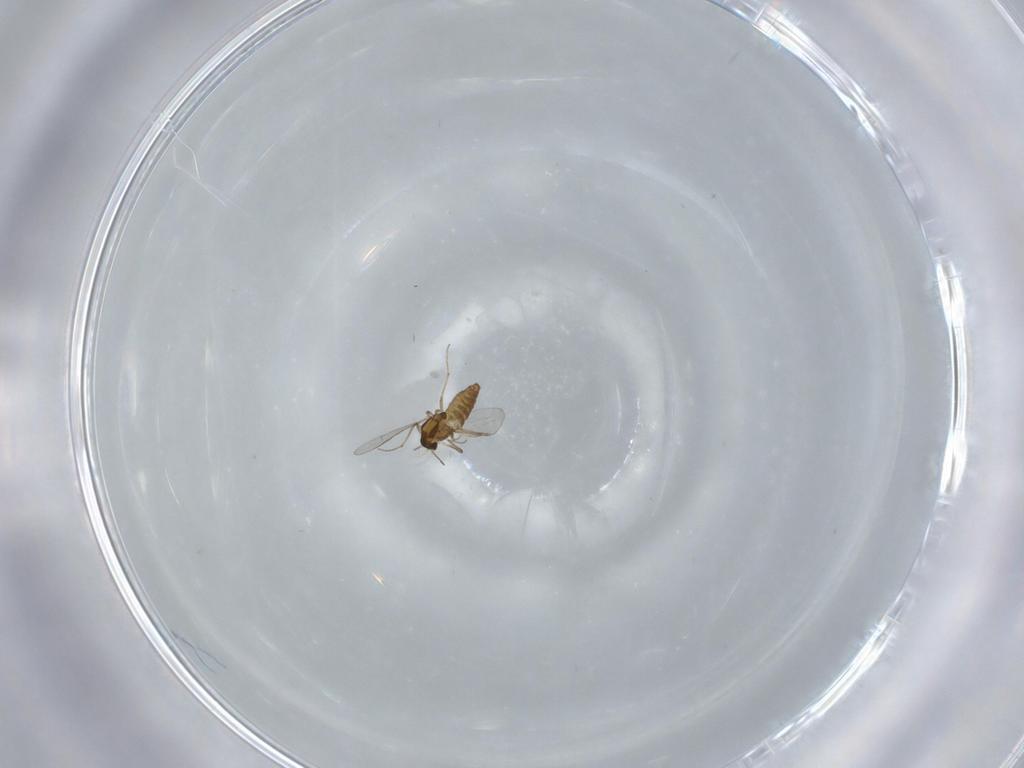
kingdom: Animalia
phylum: Arthropoda
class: Insecta
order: Diptera
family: Chironomidae
